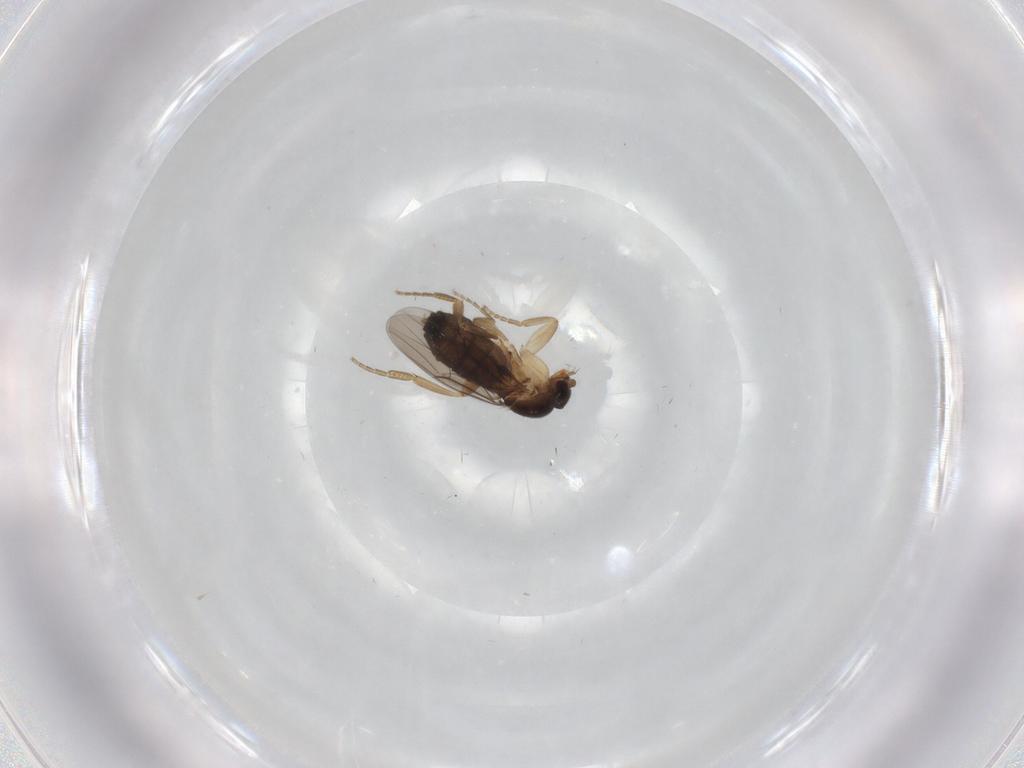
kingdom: Animalia
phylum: Arthropoda
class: Insecta
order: Diptera
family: Phoridae
